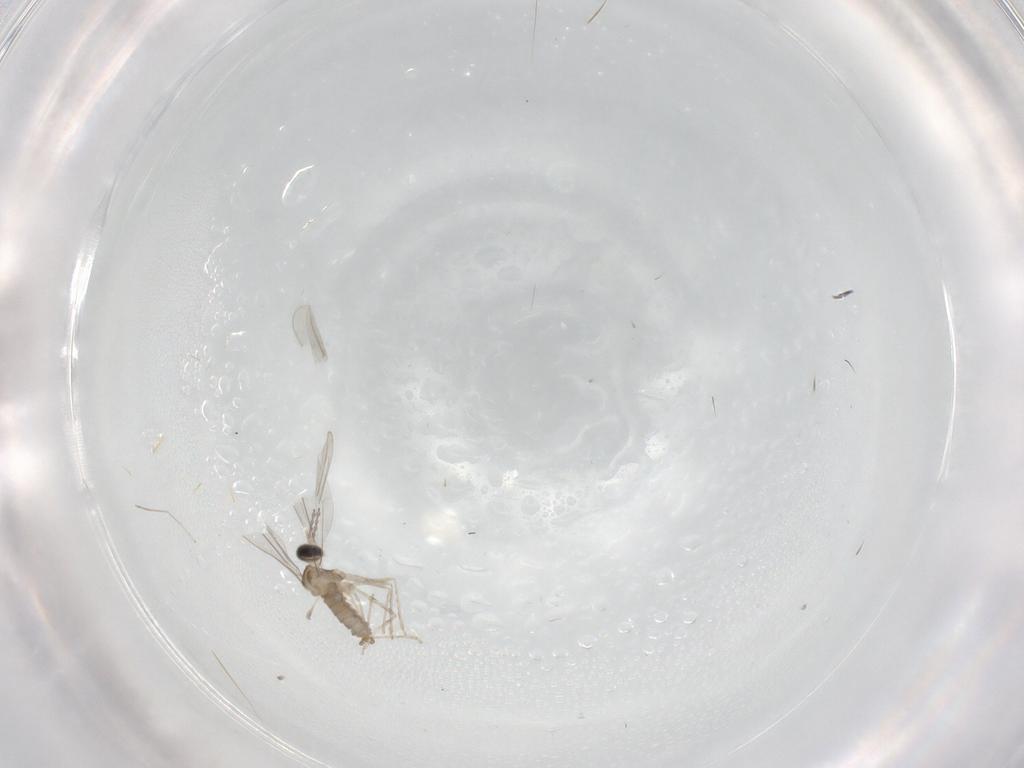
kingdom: Animalia
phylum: Arthropoda
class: Insecta
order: Diptera
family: Cecidomyiidae
